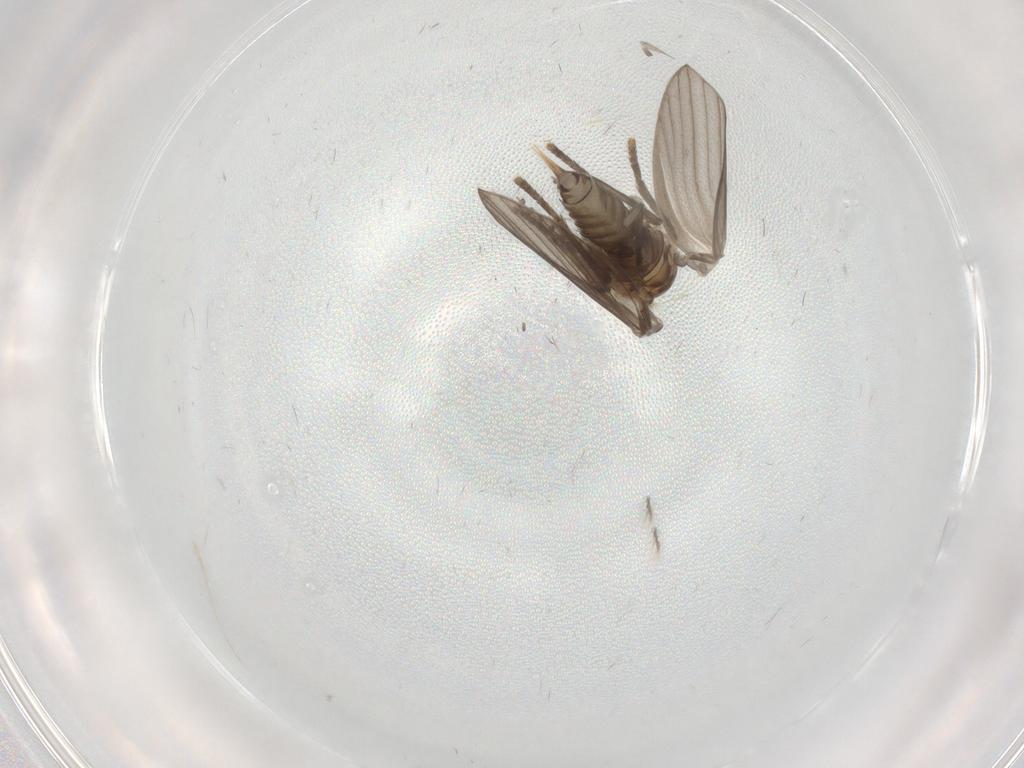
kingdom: Animalia
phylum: Arthropoda
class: Insecta
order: Diptera
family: Psychodidae
